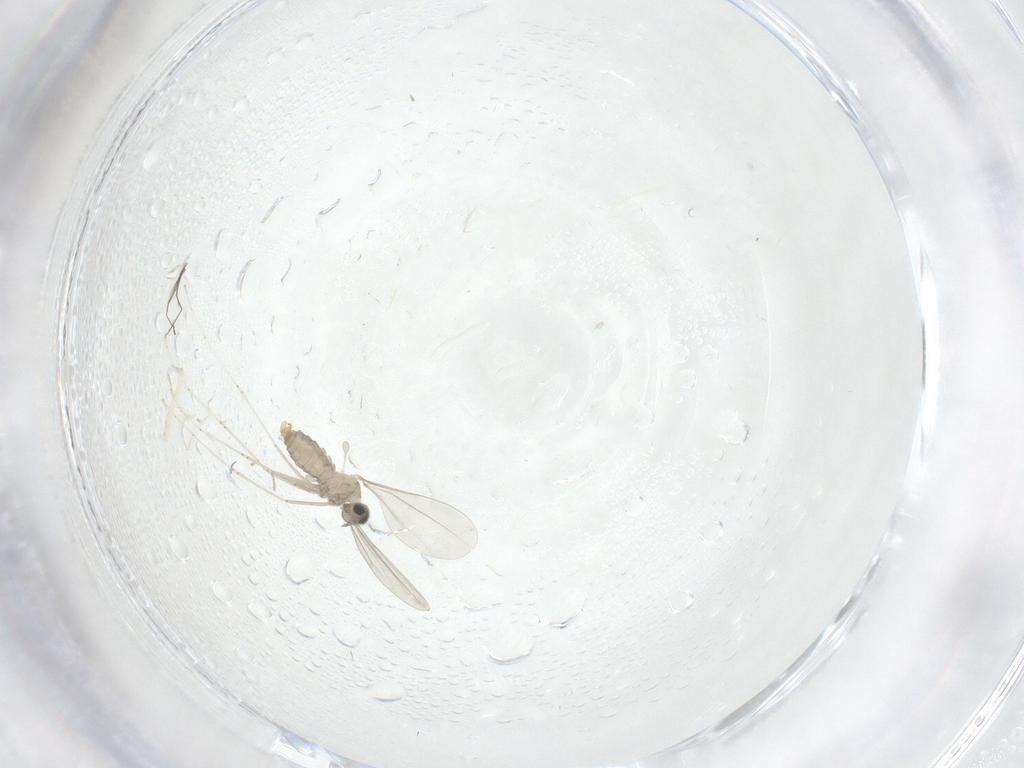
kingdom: Animalia
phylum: Arthropoda
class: Insecta
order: Diptera
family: Cecidomyiidae
